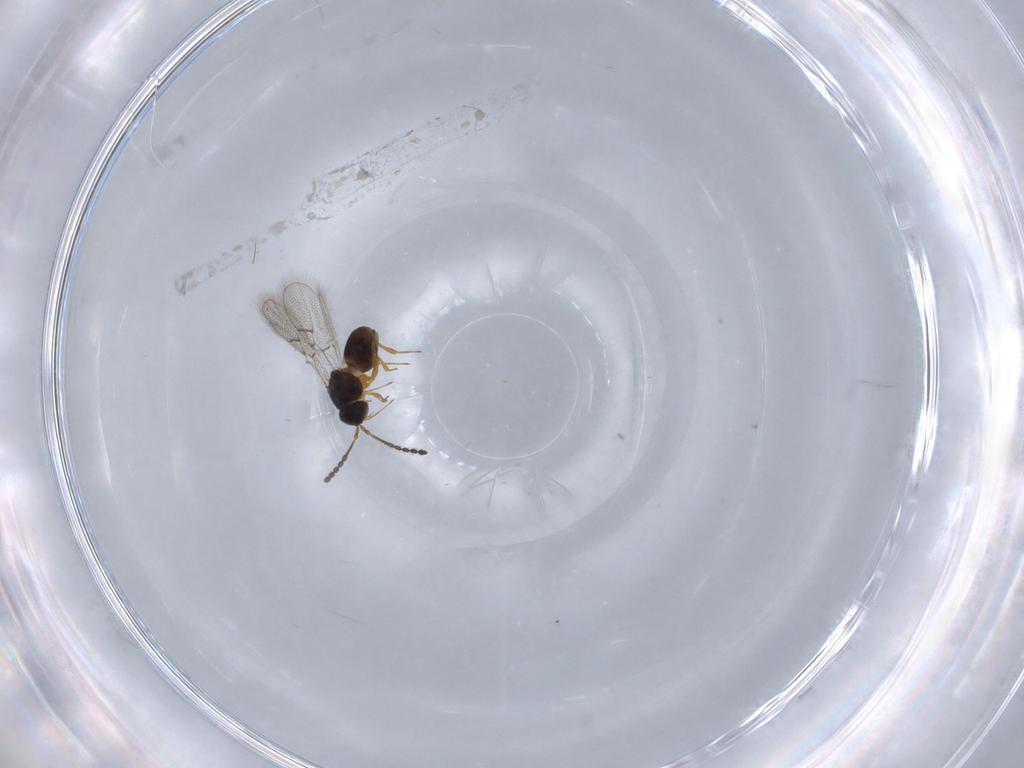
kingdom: Animalia
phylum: Arthropoda
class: Insecta
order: Hymenoptera
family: Figitidae
